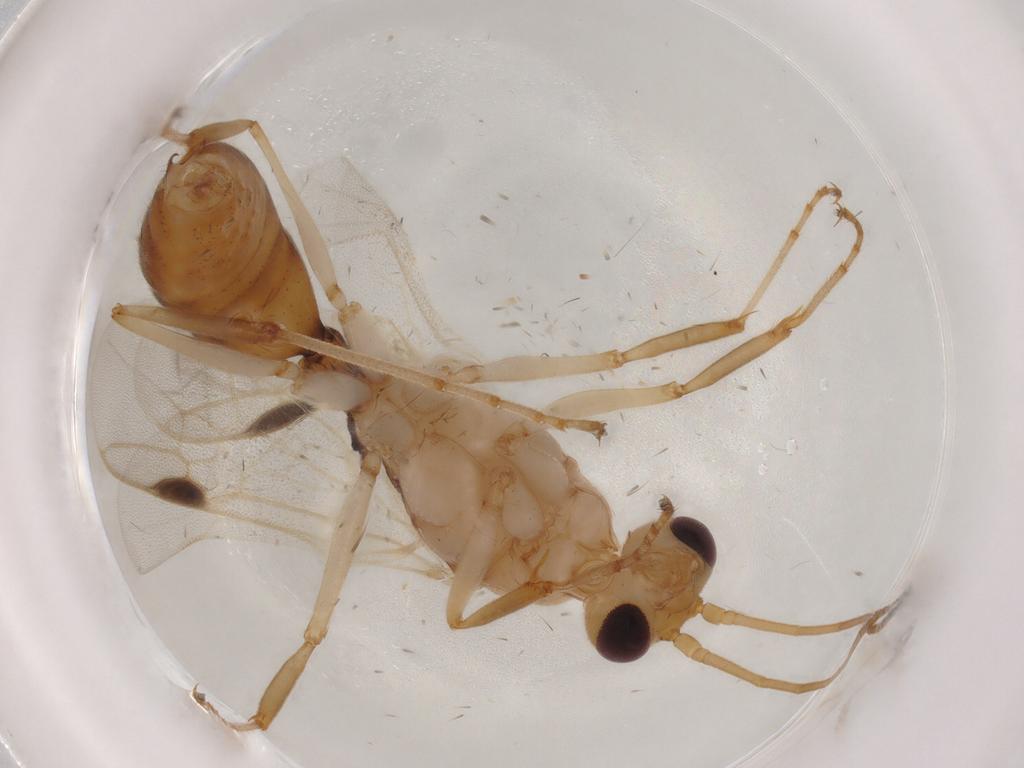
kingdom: Animalia
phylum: Arthropoda
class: Insecta
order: Hymenoptera
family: Formicidae
